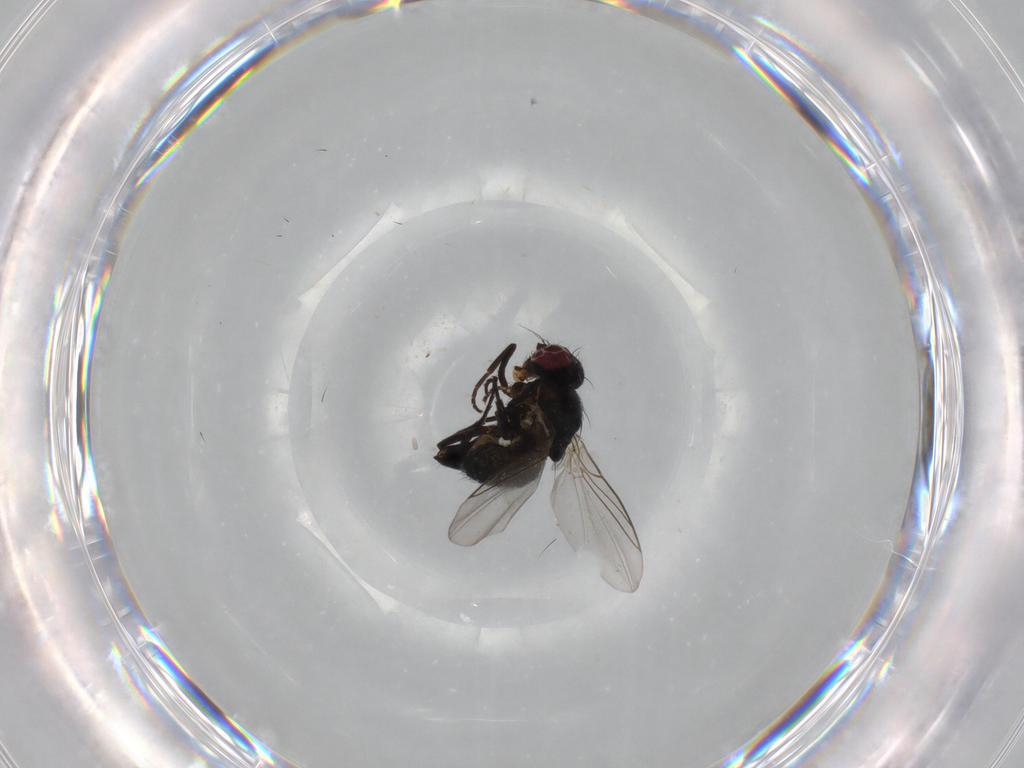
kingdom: Animalia
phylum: Arthropoda
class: Insecta
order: Diptera
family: Ephydridae
